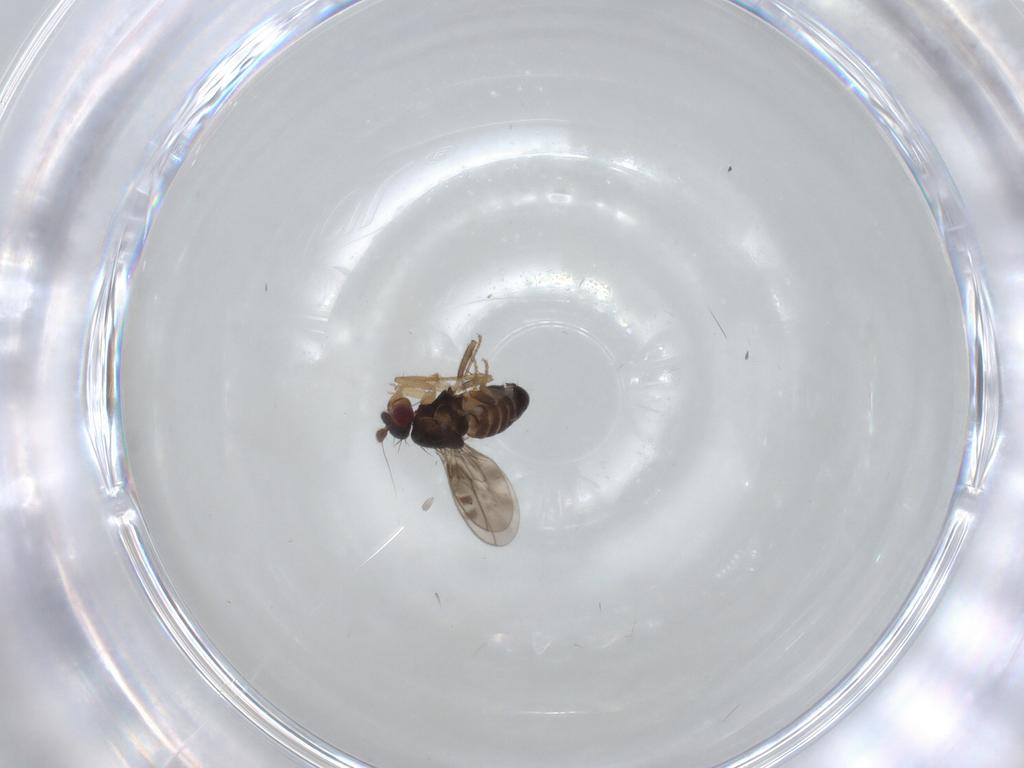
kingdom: Animalia
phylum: Arthropoda
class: Insecta
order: Diptera
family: Sphaeroceridae
